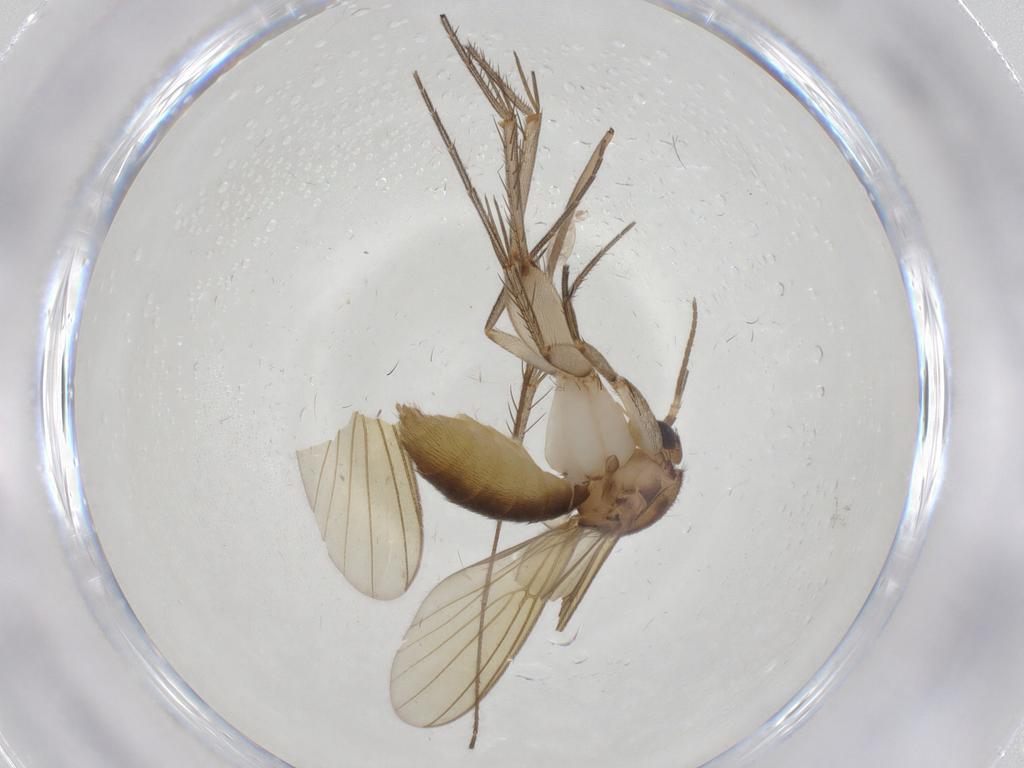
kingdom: Animalia
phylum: Arthropoda
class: Insecta
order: Diptera
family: Mycetophilidae
